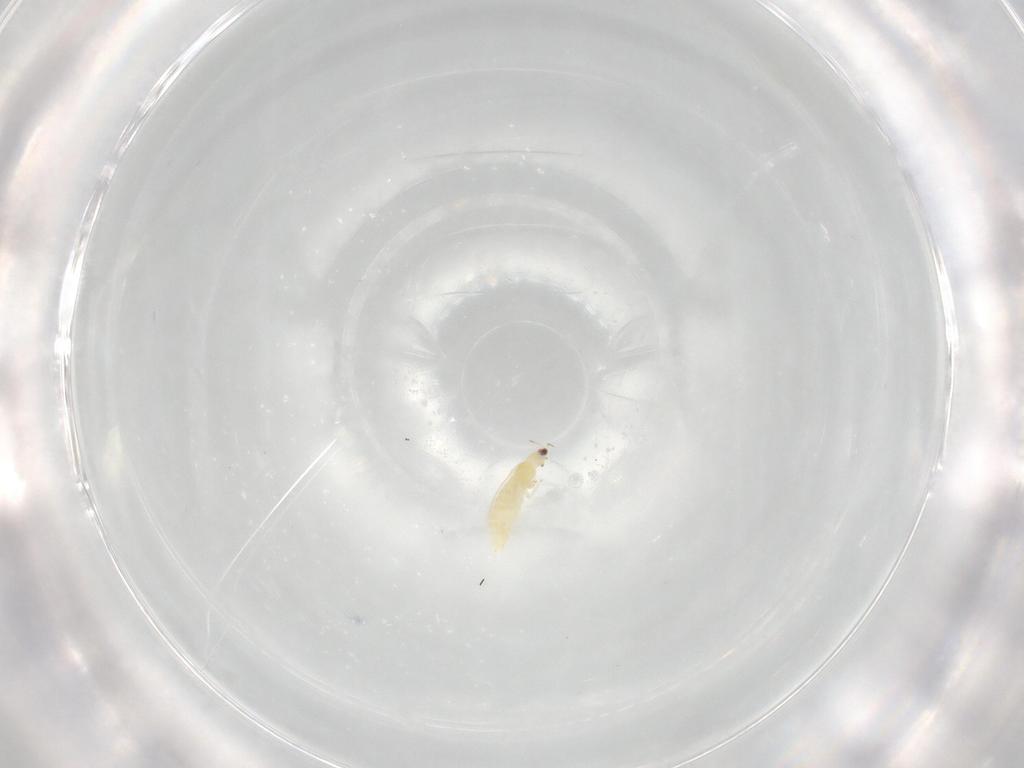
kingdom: Animalia
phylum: Arthropoda
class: Insecta
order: Thysanoptera
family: Thripidae
